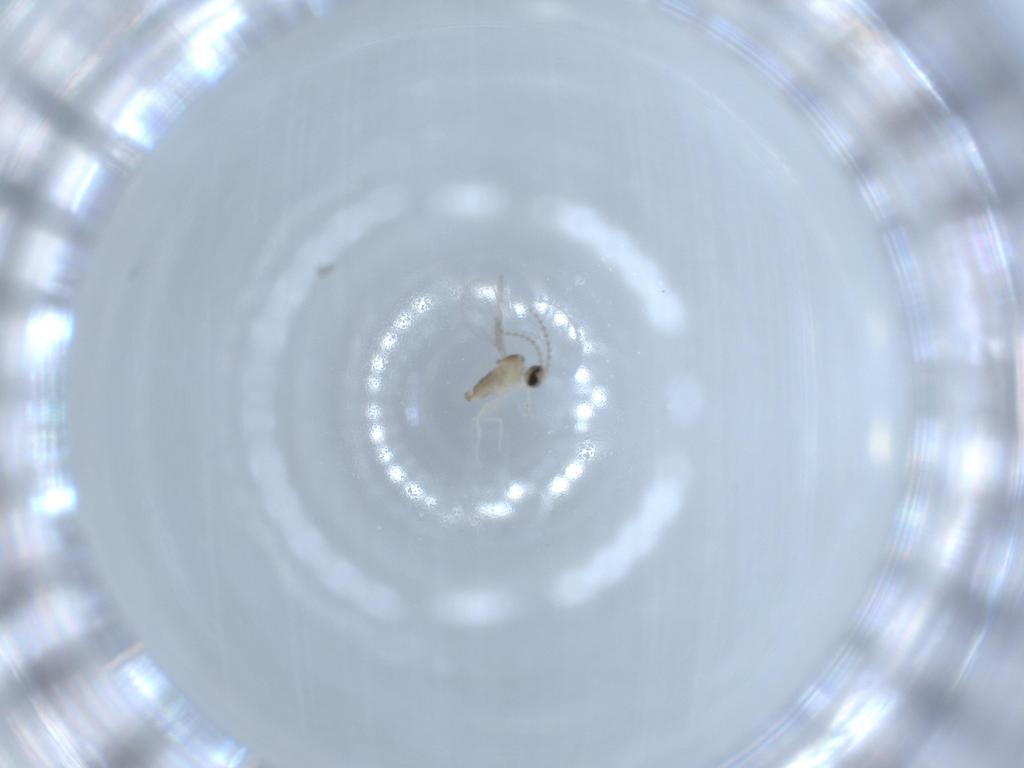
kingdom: Animalia
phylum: Arthropoda
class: Insecta
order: Diptera
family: Cecidomyiidae
